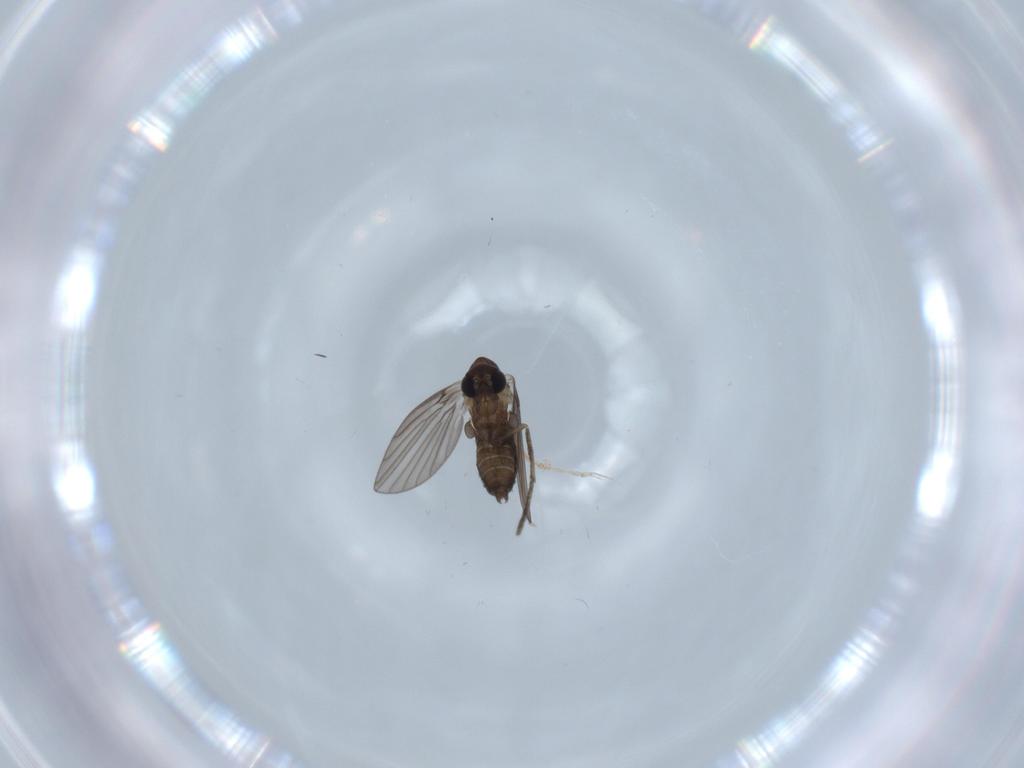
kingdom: Animalia
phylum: Arthropoda
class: Insecta
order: Diptera
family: Psychodidae
